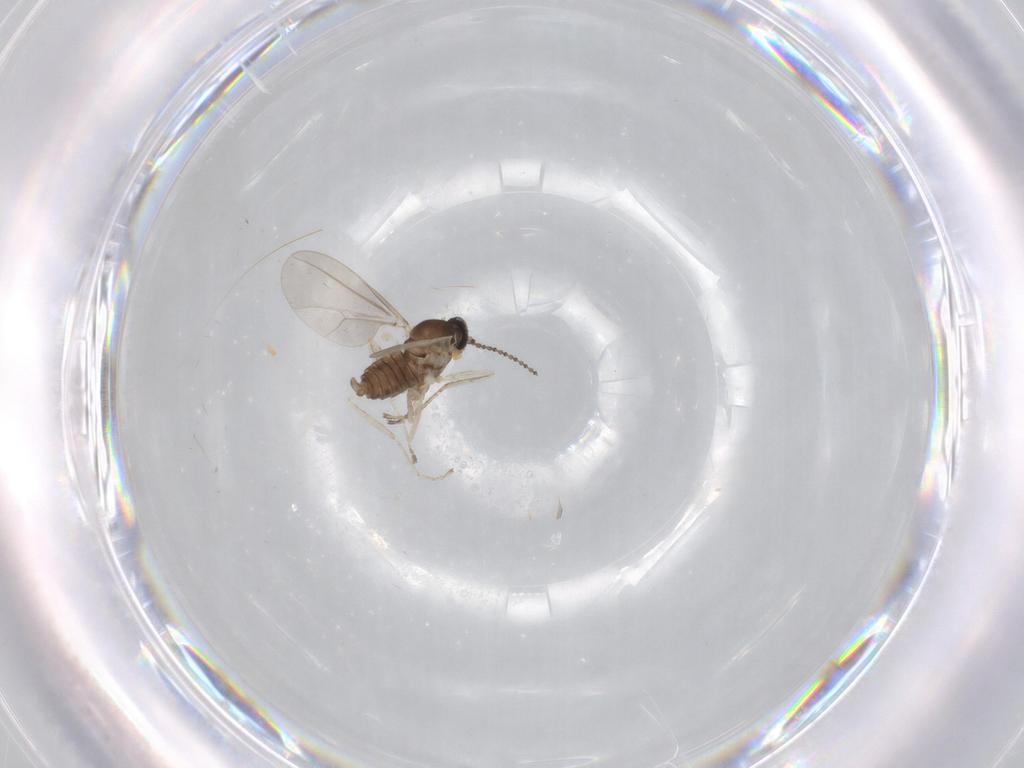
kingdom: Animalia
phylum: Arthropoda
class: Insecta
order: Diptera
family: Cecidomyiidae
